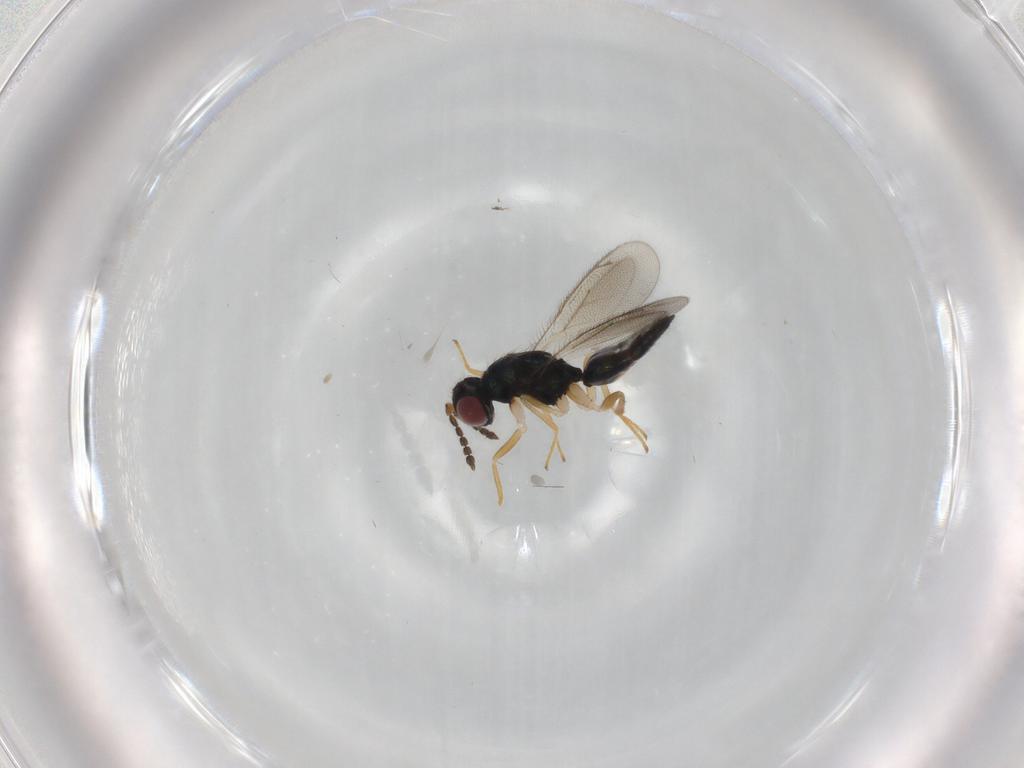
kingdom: Animalia
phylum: Arthropoda
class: Insecta
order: Hymenoptera
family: Eulophidae
